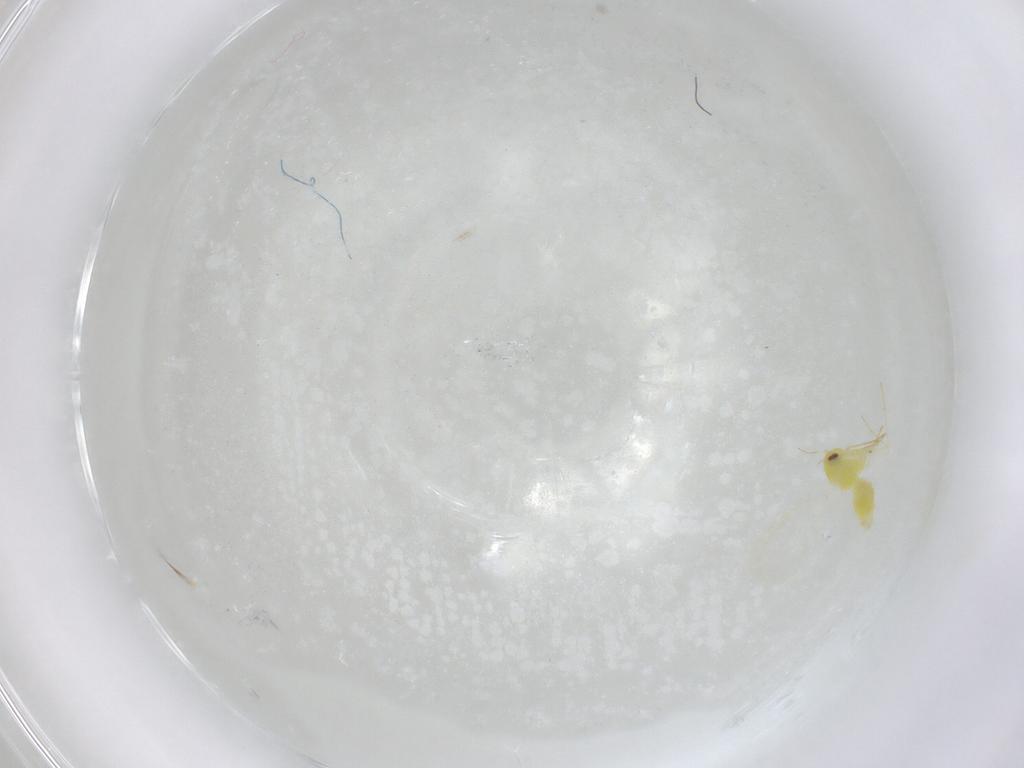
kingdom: Animalia
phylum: Arthropoda
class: Insecta
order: Hemiptera
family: Aleyrodidae
